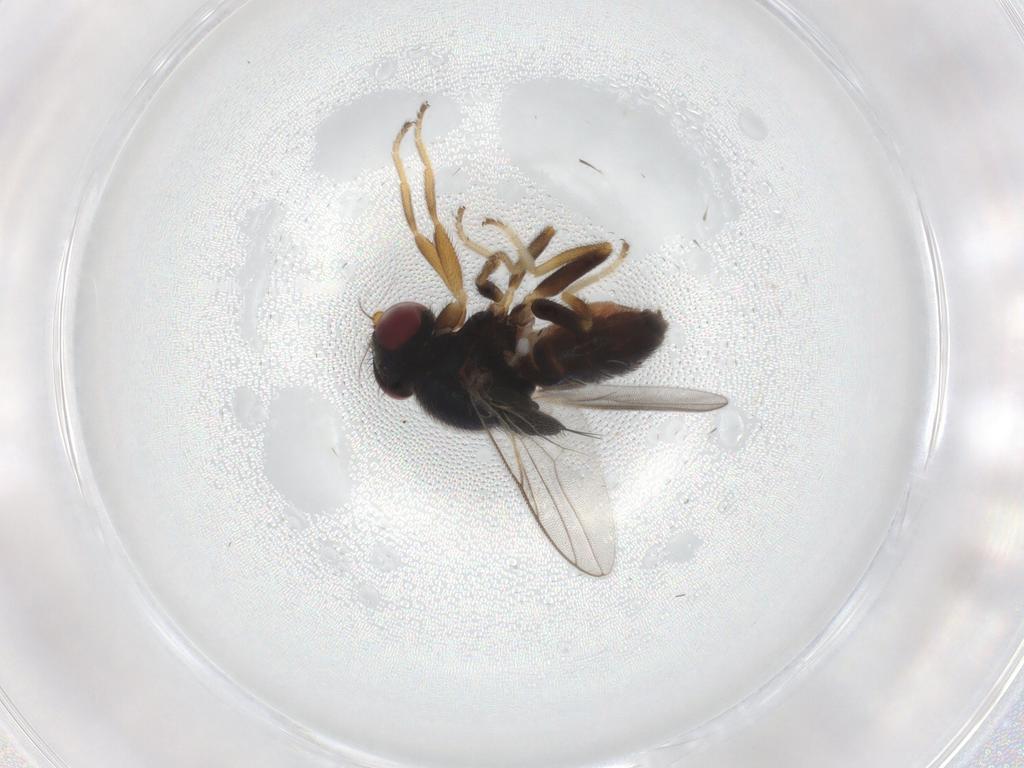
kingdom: Animalia
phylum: Arthropoda
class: Insecta
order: Diptera
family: Chloropidae
